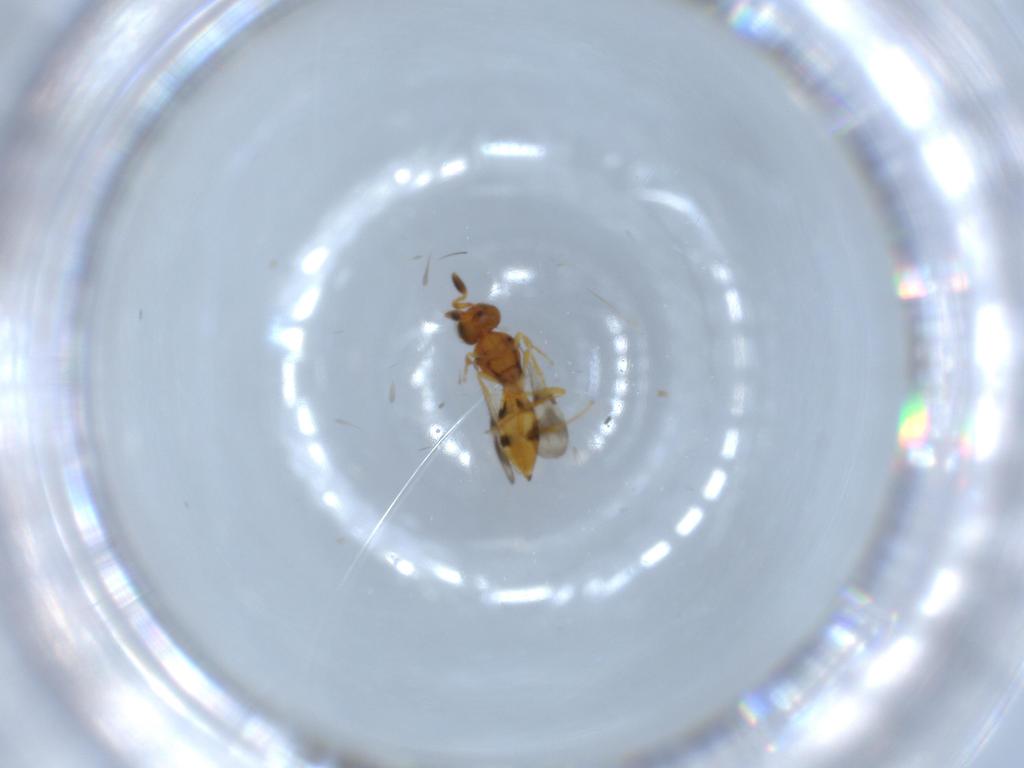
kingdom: Animalia
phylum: Arthropoda
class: Insecta
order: Hymenoptera
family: Scelionidae
